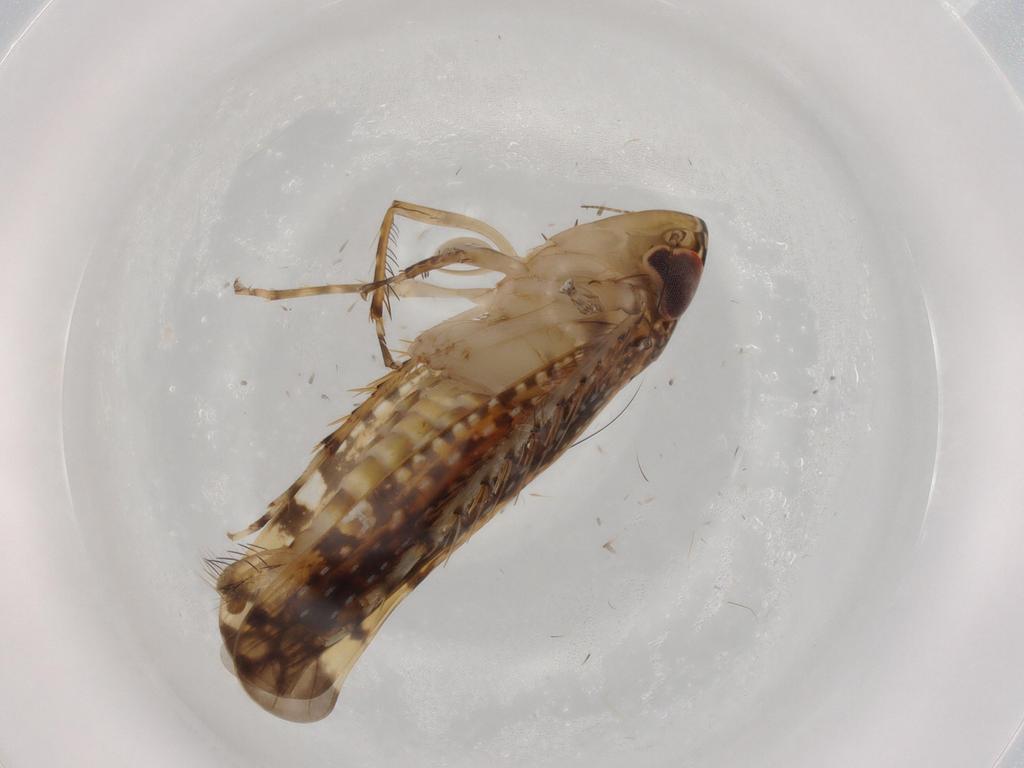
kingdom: Animalia
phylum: Arthropoda
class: Insecta
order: Hemiptera
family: Cicadellidae
